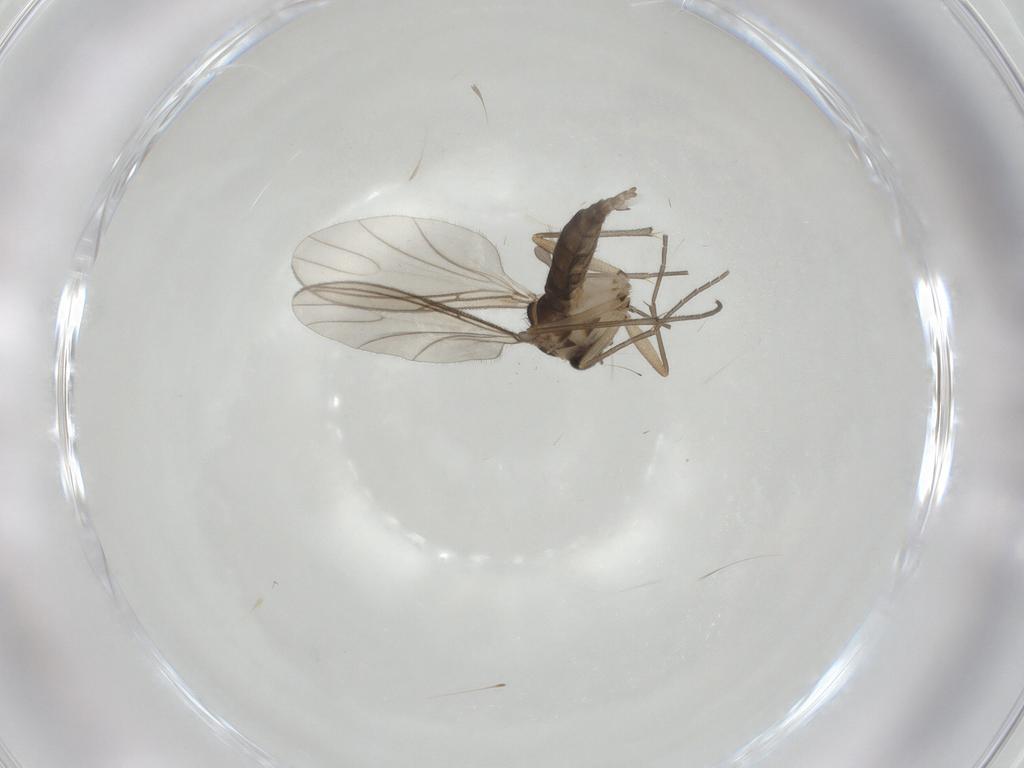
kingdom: Animalia
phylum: Arthropoda
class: Insecta
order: Diptera
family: Sciaridae
